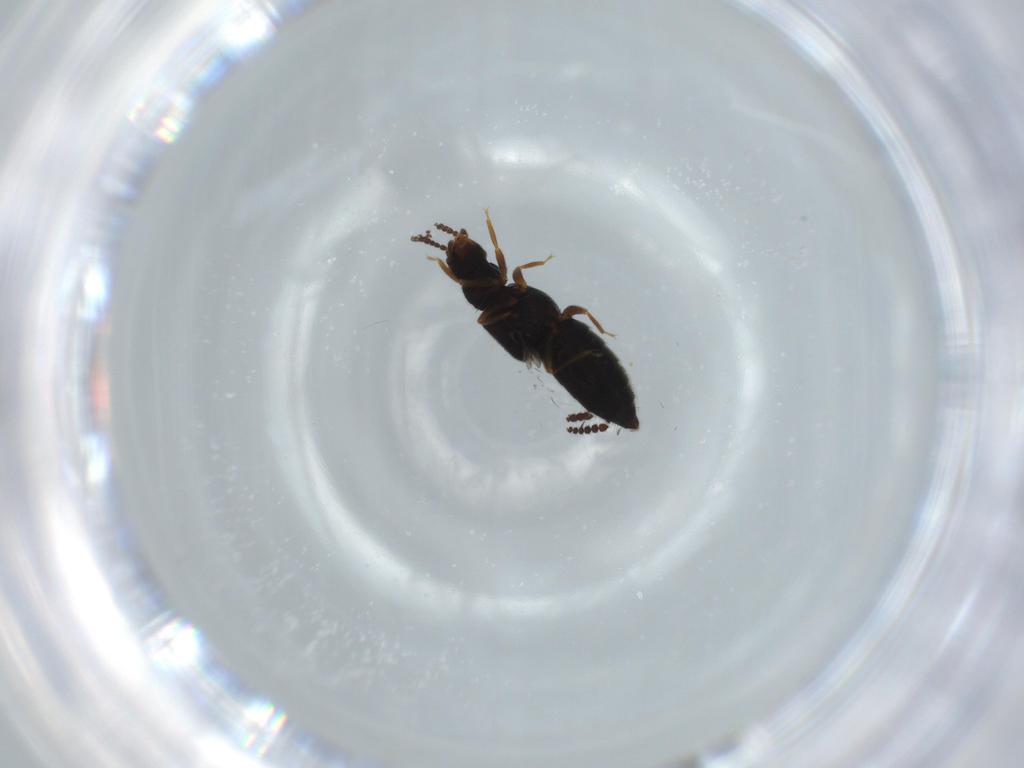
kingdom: Animalia
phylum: Arthropoda
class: Insecta
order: Coleoptera
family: Staphylinidae
